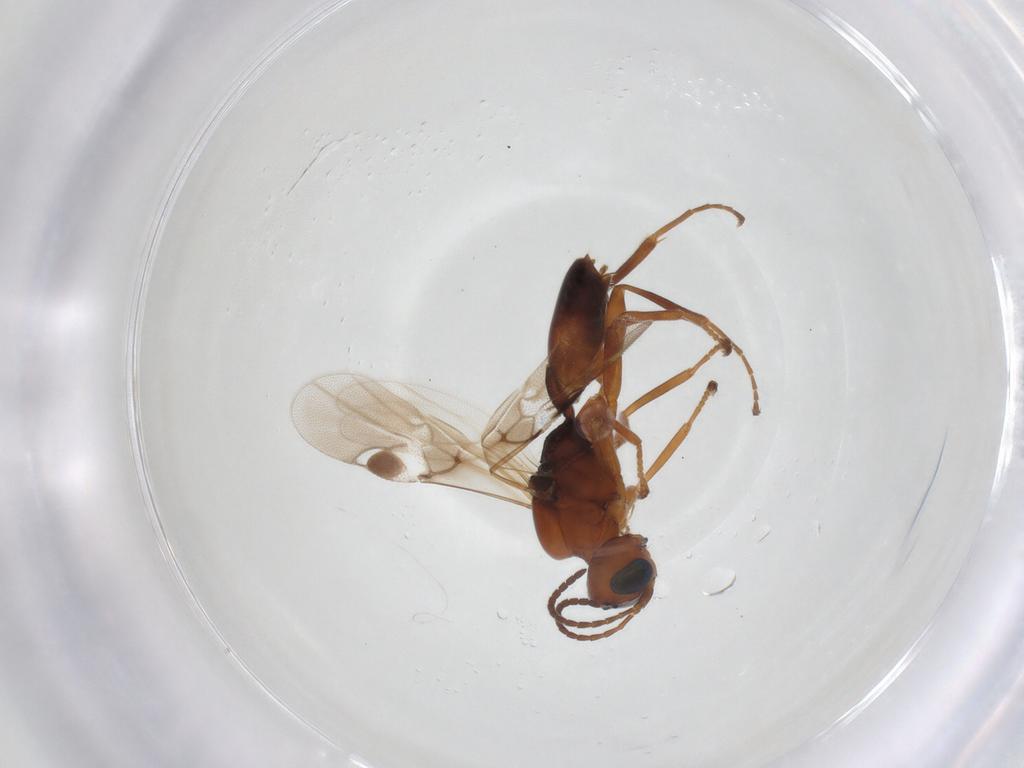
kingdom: Animalia
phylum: Arthropoda
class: Insecta
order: Hymenoptera
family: Braconidae
